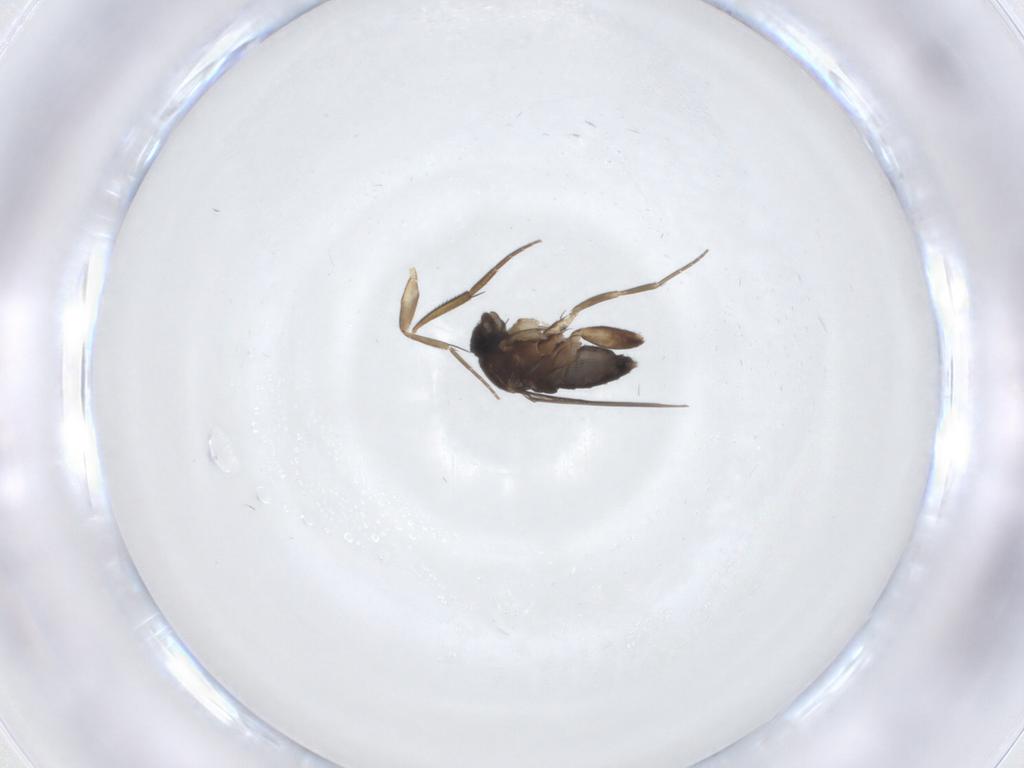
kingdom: Animalia
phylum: Arthropoda
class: Insecta
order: Diptera
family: Phoridae
